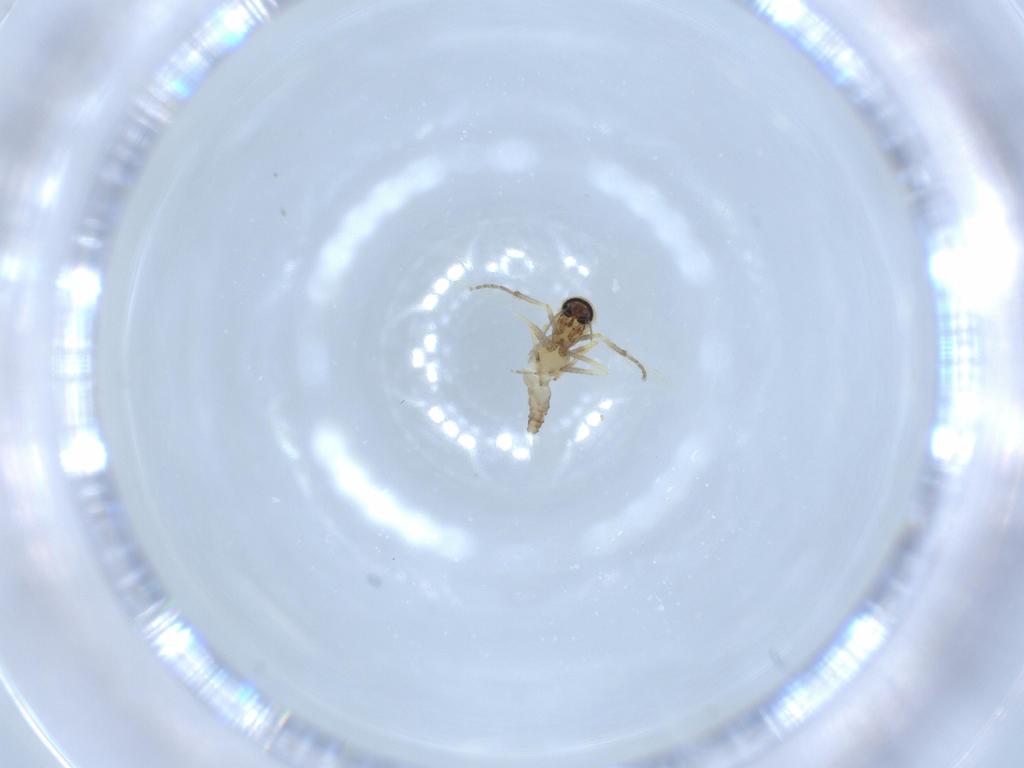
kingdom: Animalia
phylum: Arthropoda
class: Insecta
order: Diptera
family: Ceratopogonidae
